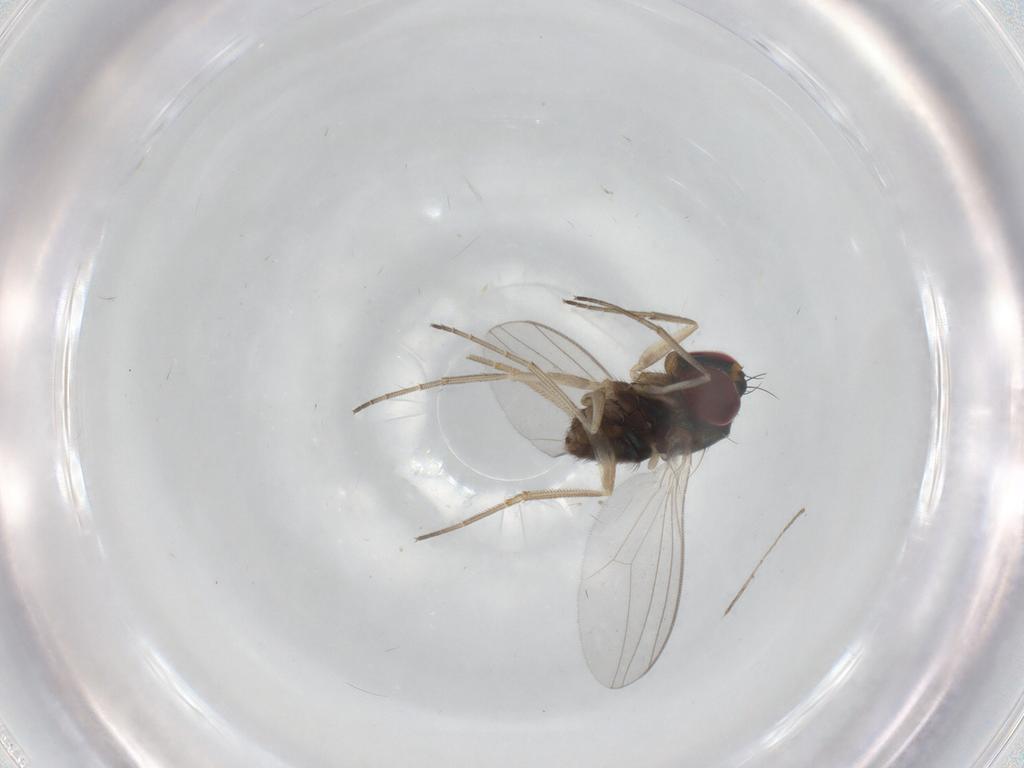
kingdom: Animalia
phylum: Arthropoda
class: Insecta
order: Diptera
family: Dolichopodidae
